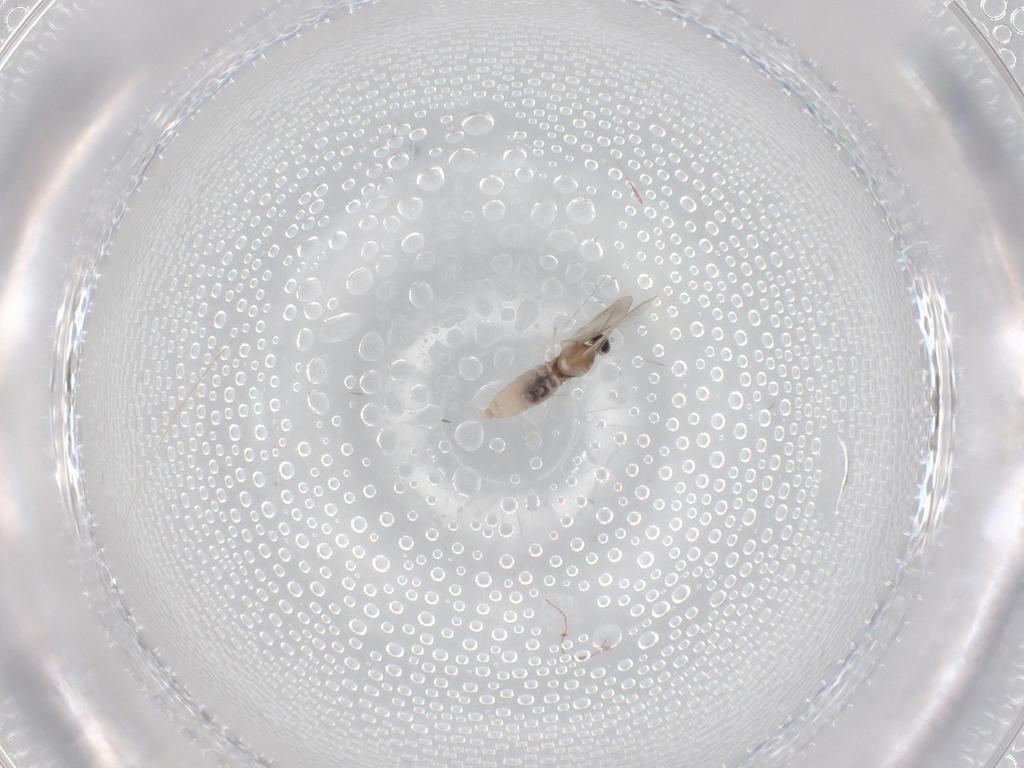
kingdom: Animalia
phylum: Arthropoda
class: Insecta
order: Diptera
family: Cecidomyiidae
